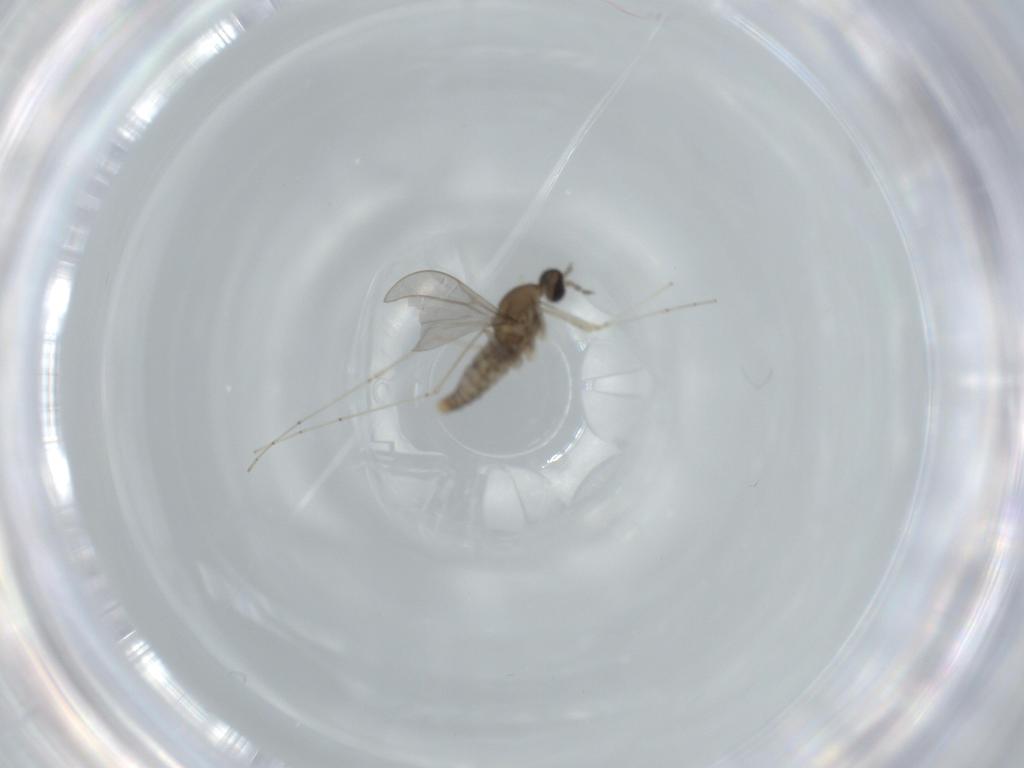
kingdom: Animalia
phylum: Arthropoda
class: Insecta
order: Diptera
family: Cecidomyiidae
